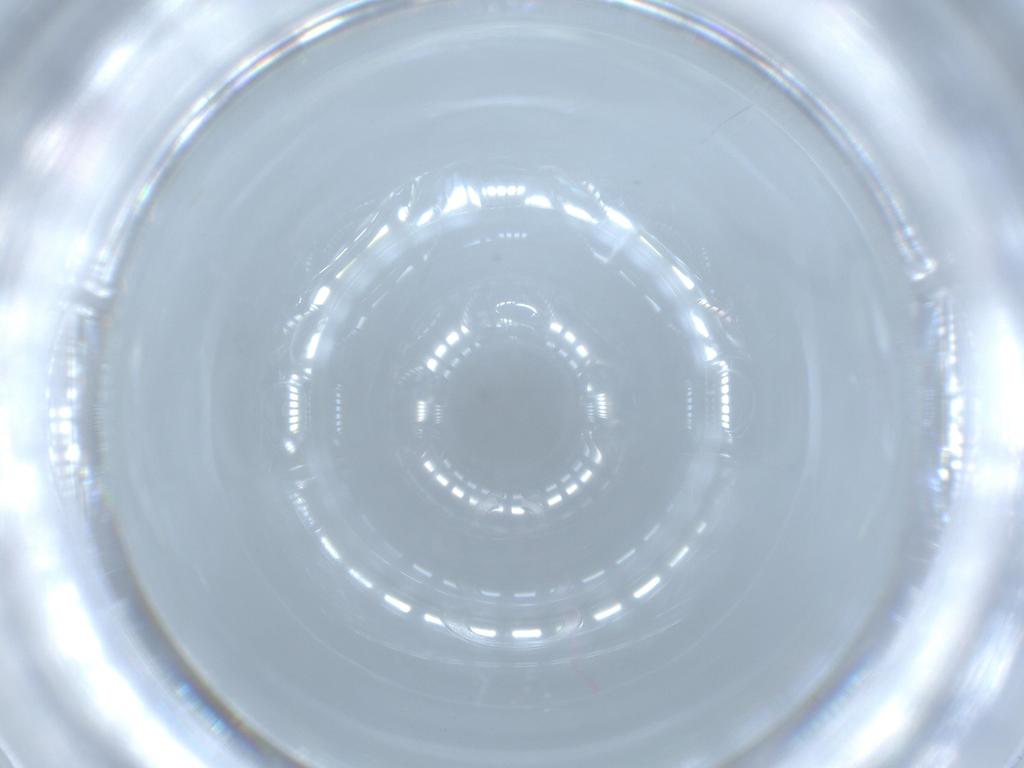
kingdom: Animalia
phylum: Arthropoda
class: Insecta
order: Hemiptera
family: Aleyrodidae
